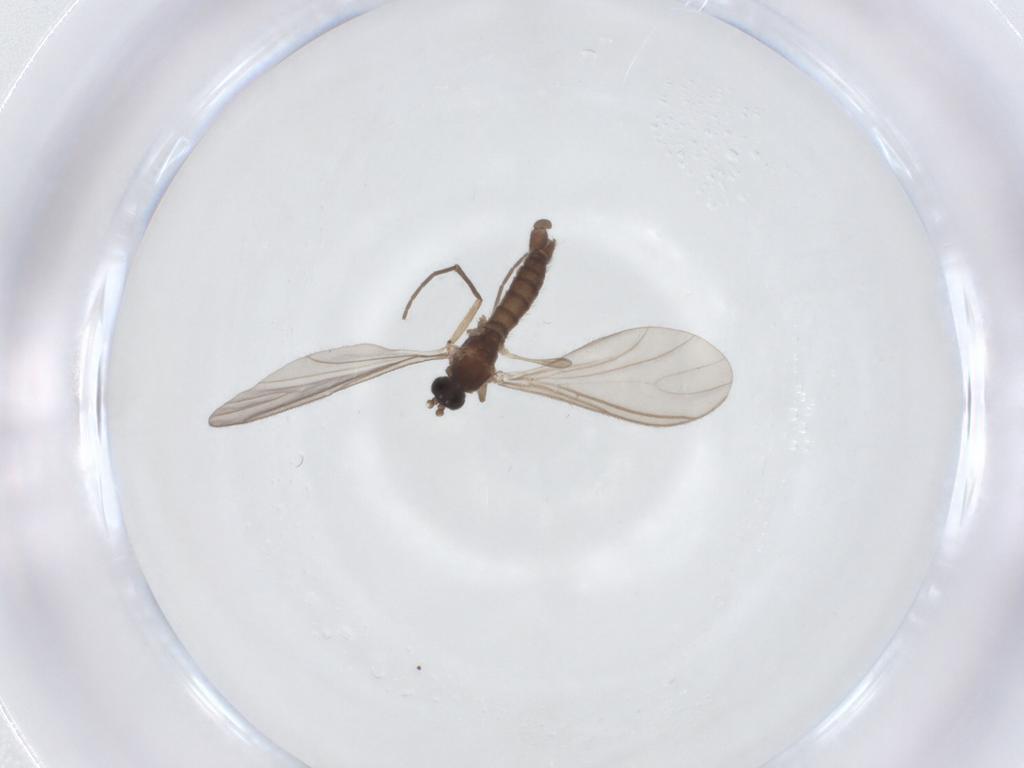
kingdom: Animalia
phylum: Arthropoda
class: Insecta
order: Diptera
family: Sciaridae
